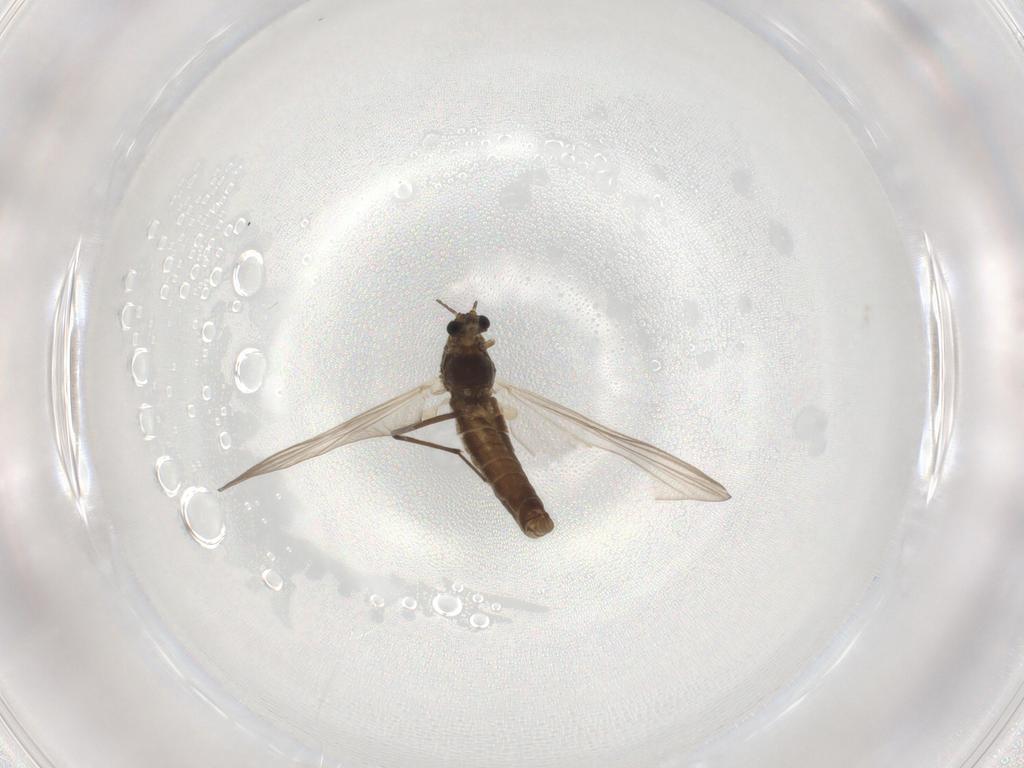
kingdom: Animalia
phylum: Arthropoda
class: Insecta
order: Diptera
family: Chironomidae
